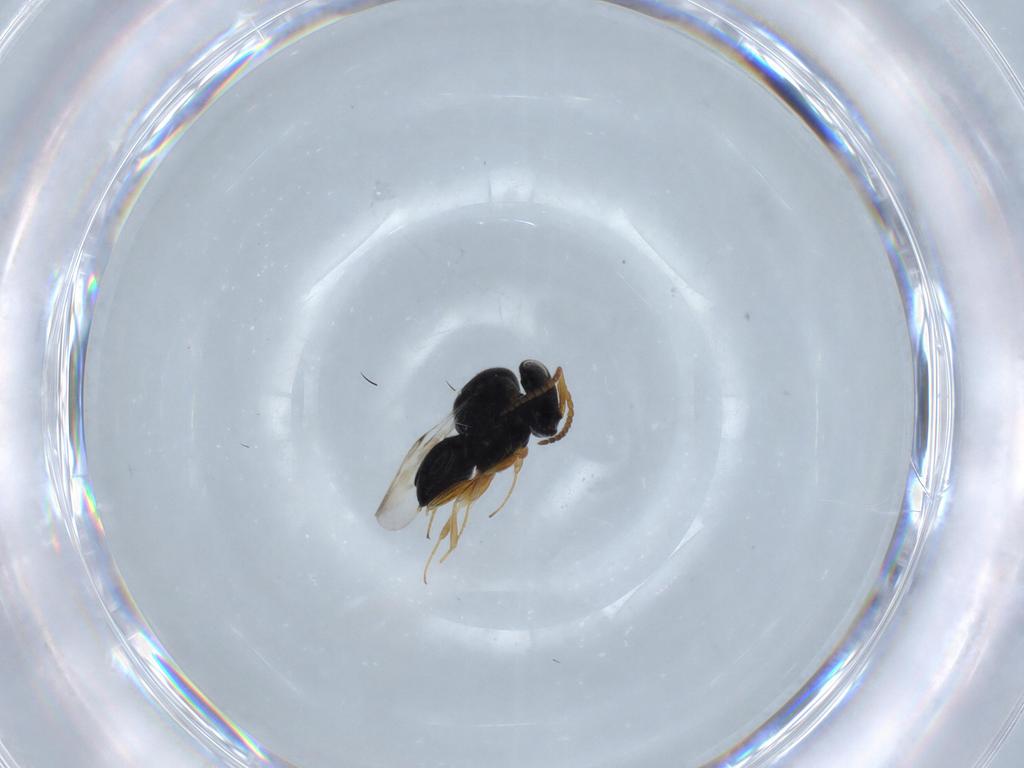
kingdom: Animalia
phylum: Arthropoda
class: Insecta
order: Hymenoptera
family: Scelionidae
